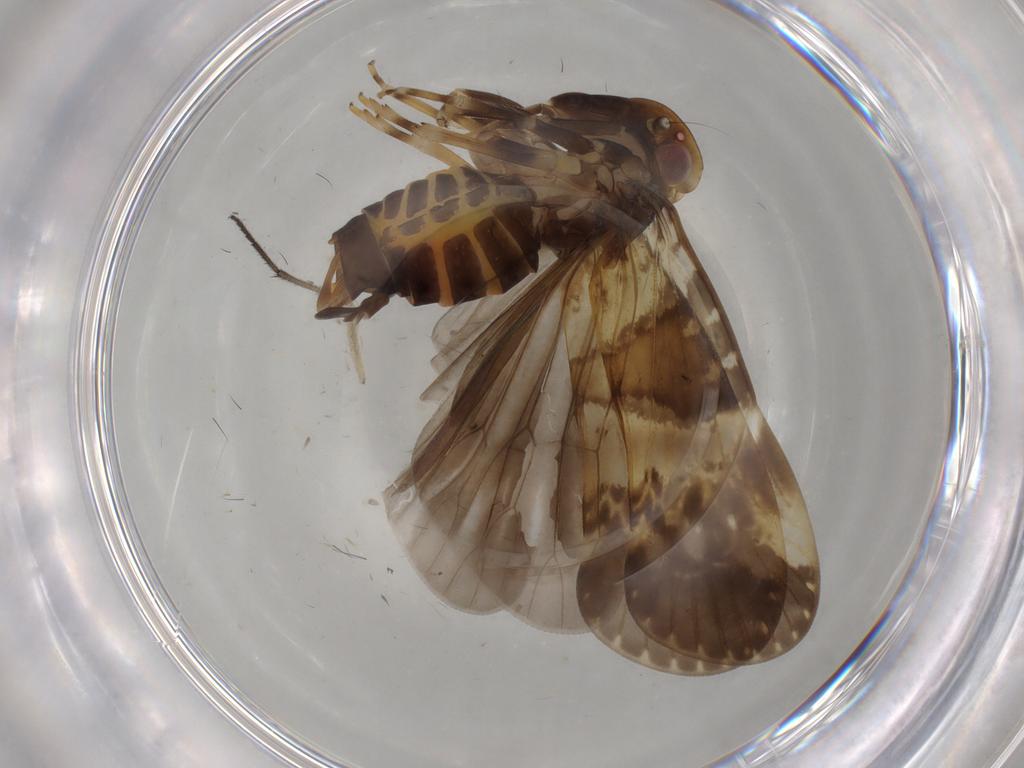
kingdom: Animalia
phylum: Arthropoda
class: Insecta
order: Hemiptera
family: Cixiidae
